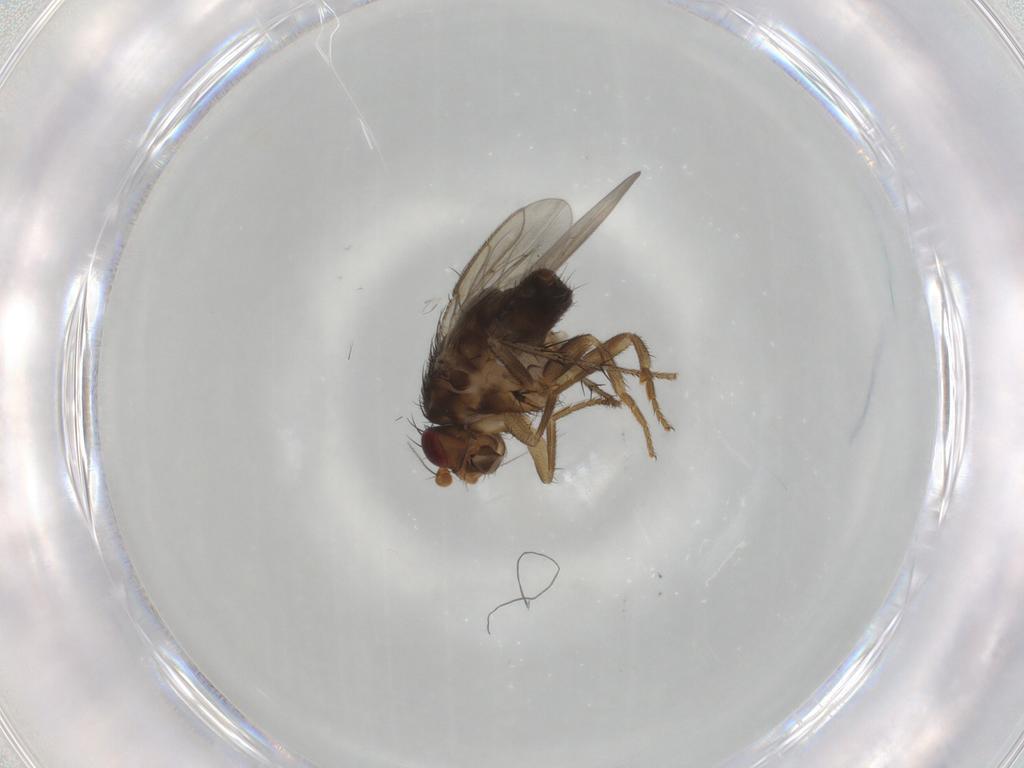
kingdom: Animalia
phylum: Arthropoda
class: Insecta
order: Diptera
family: Sphaeroceridae
